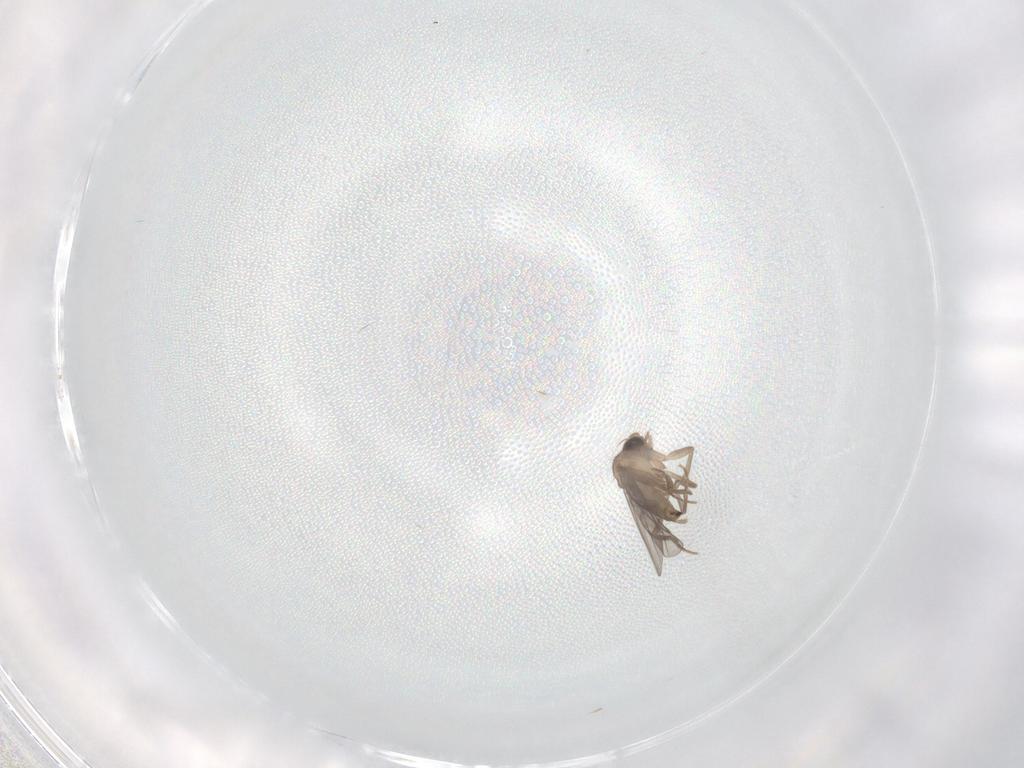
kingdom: Animalia
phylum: Arthropoda
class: Insecta
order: Diptera
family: Phoridae
